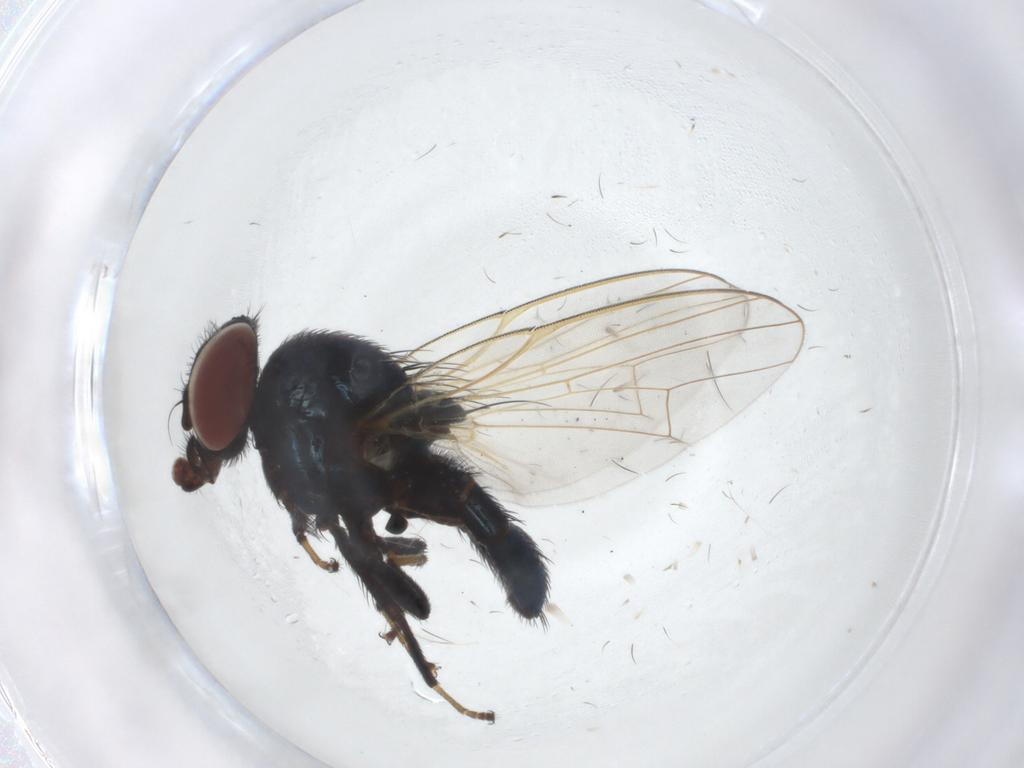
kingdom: Animalia
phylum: Arthropoda
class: Insecta
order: Diptera
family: Lonchaeidae
